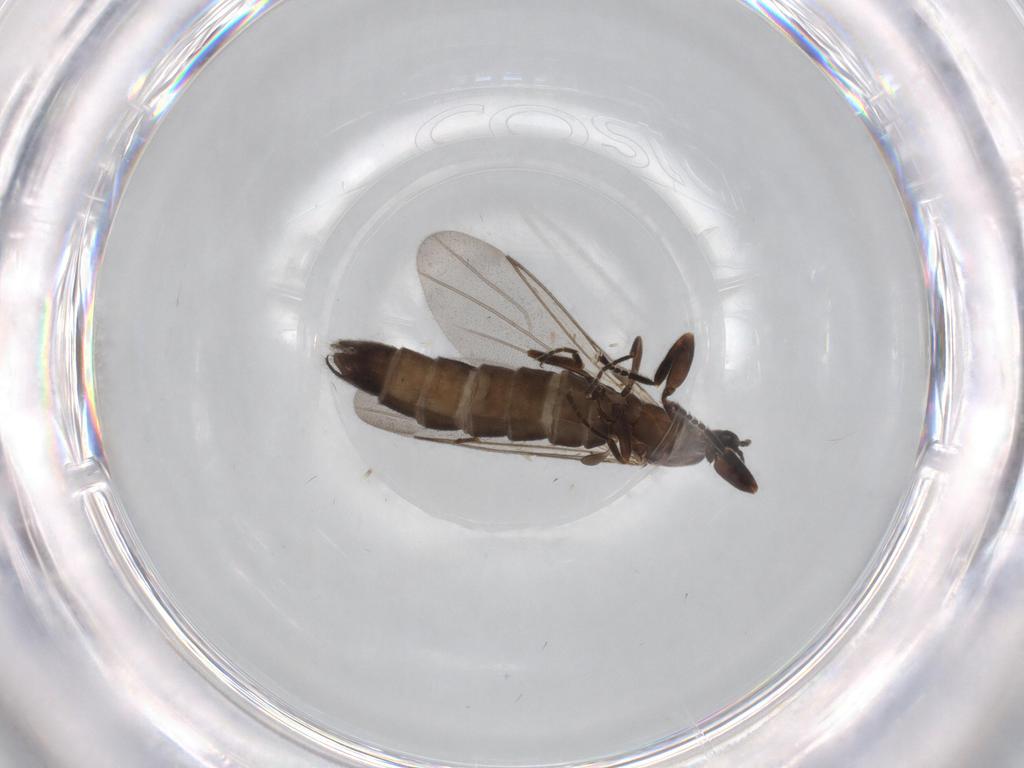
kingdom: Animalia
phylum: Arthropoda
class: Insecta
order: Diptera
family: Scatopsidae
